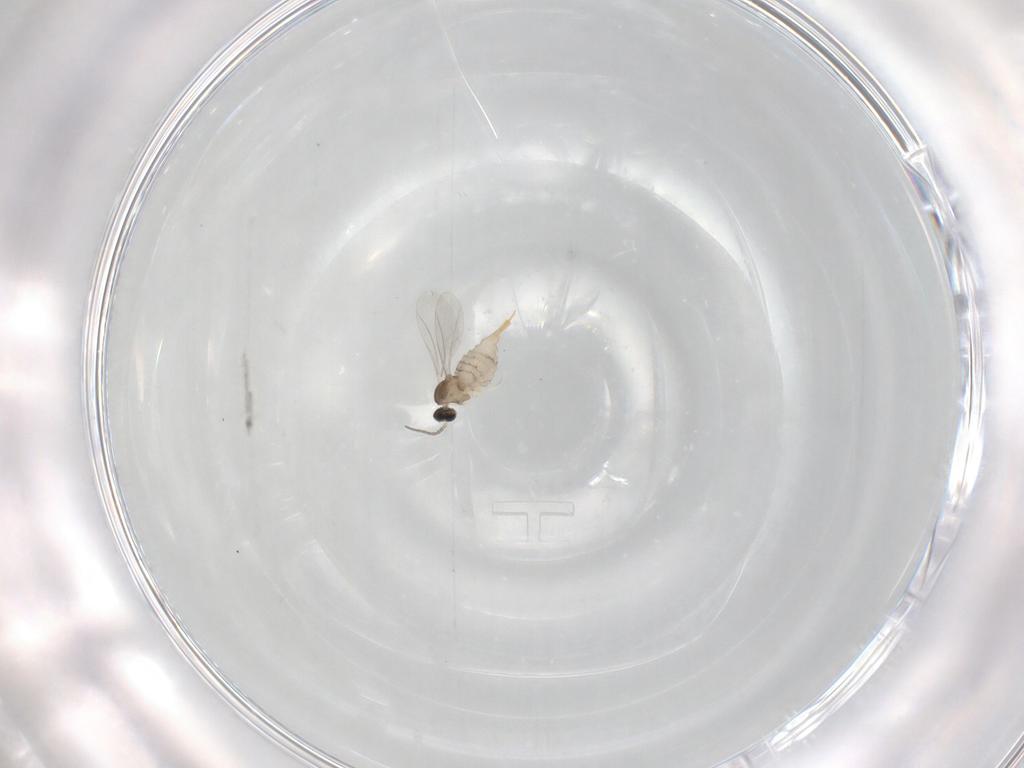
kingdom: Animalia
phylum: Arthropoda
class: Insecta
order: Diptera
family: Cecidomyiidae
